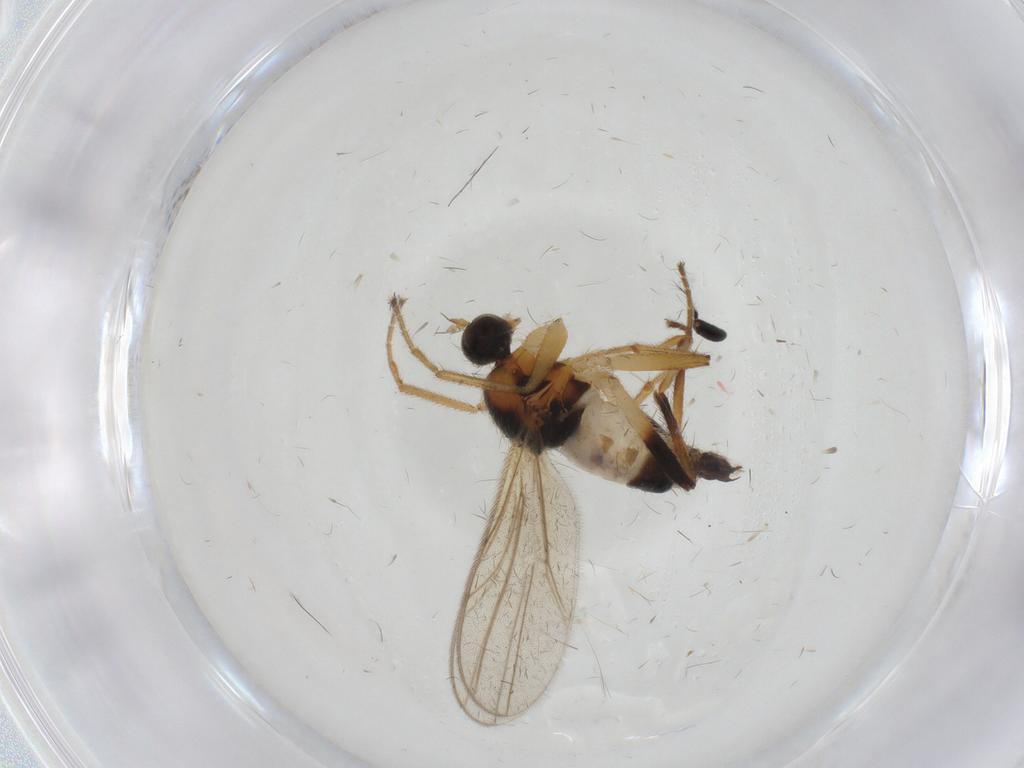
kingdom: Animalia
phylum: Arthropoda
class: Insecta
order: Diptera
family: Hybotidae
